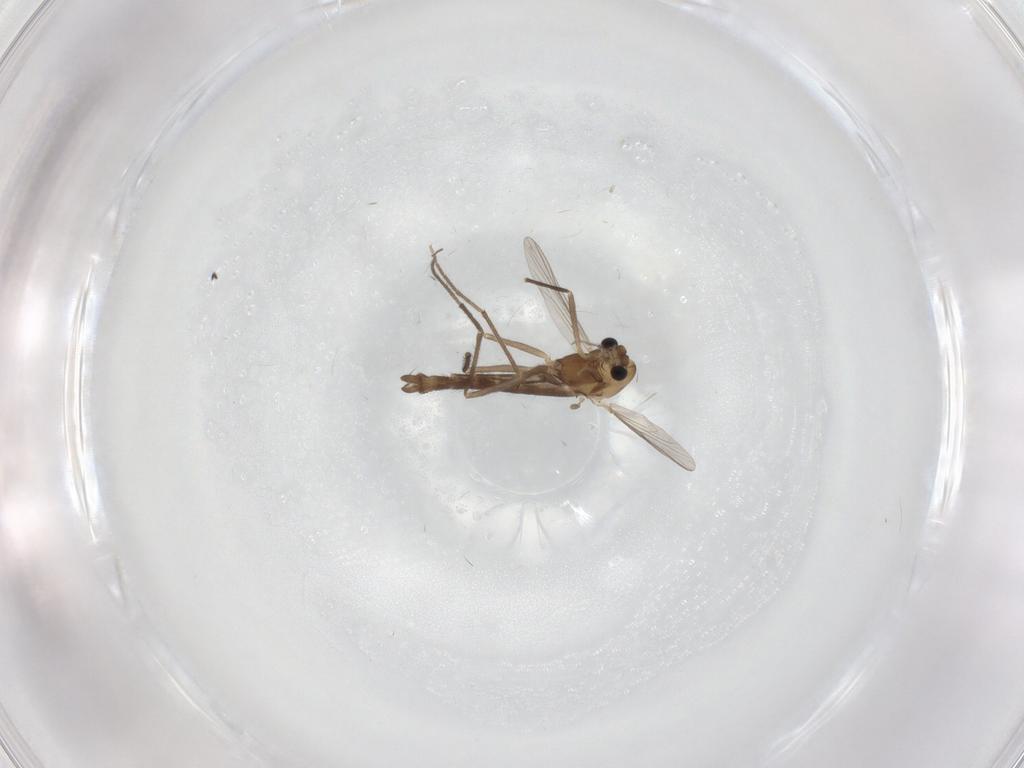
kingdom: Animalia
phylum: Arthropoda
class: Insecta
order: Diptera
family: Chironomidae
